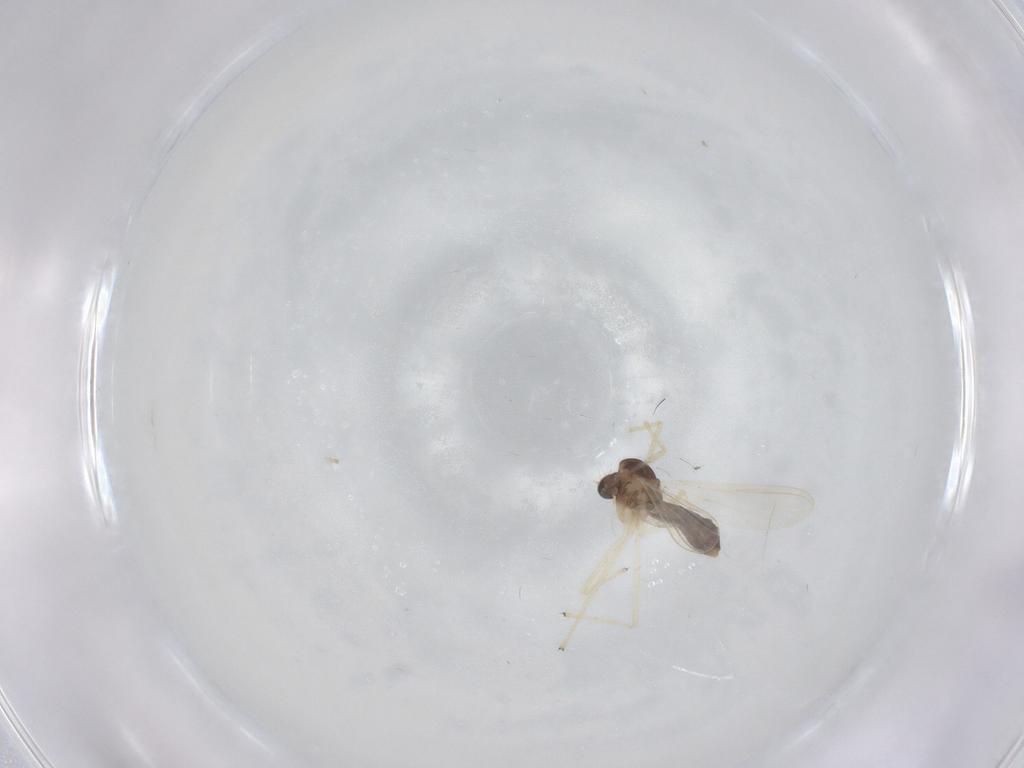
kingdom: Animalia
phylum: Arthropoda
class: Insecta
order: Diptera
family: Chironomidae
